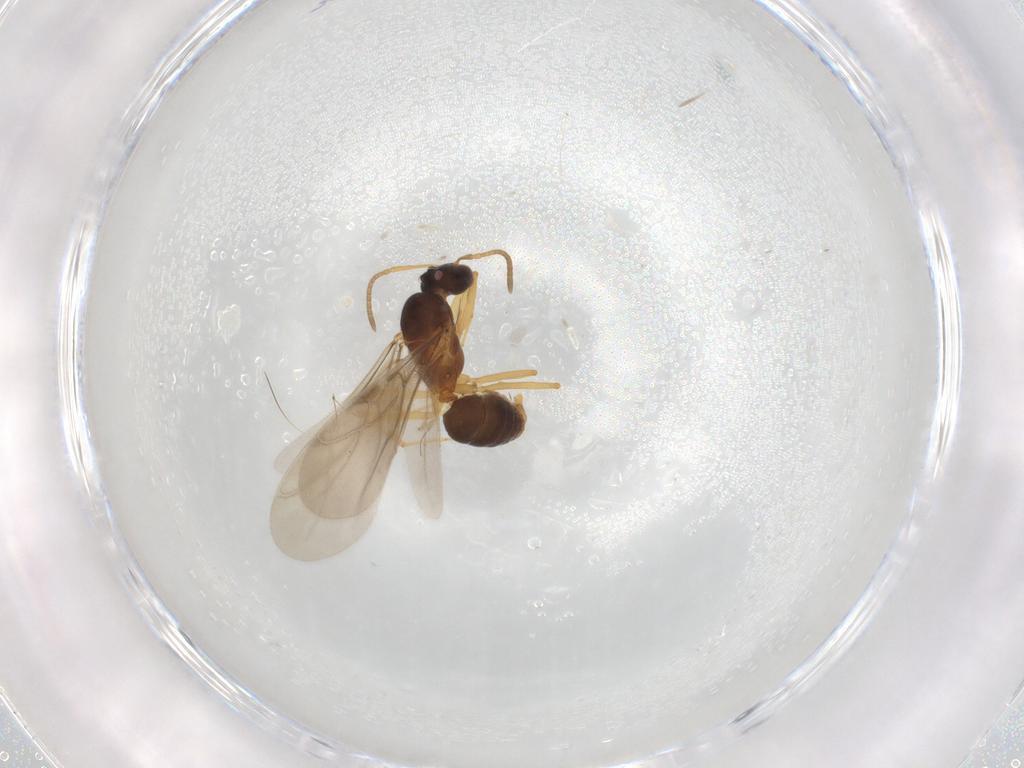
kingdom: Animalia
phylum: Arthropoda
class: Insecta
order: Hymenoptera
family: Formicidae
